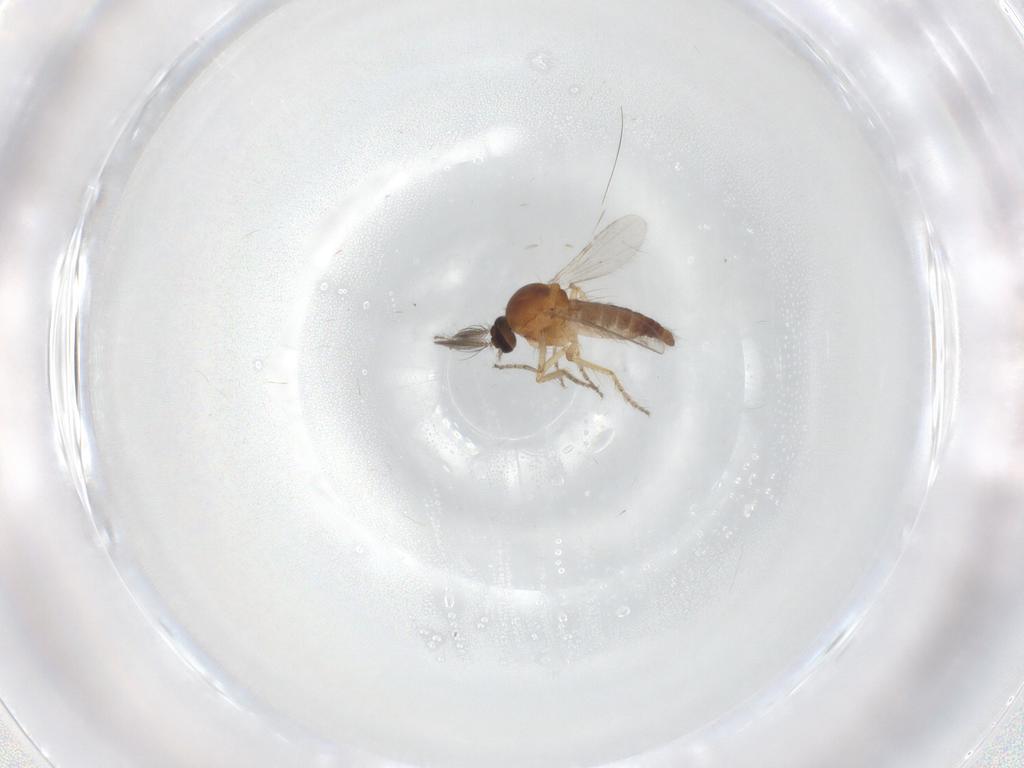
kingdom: Animalia
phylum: Arthropoda
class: Insecta
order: Diptera
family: Ceratopogonidae
